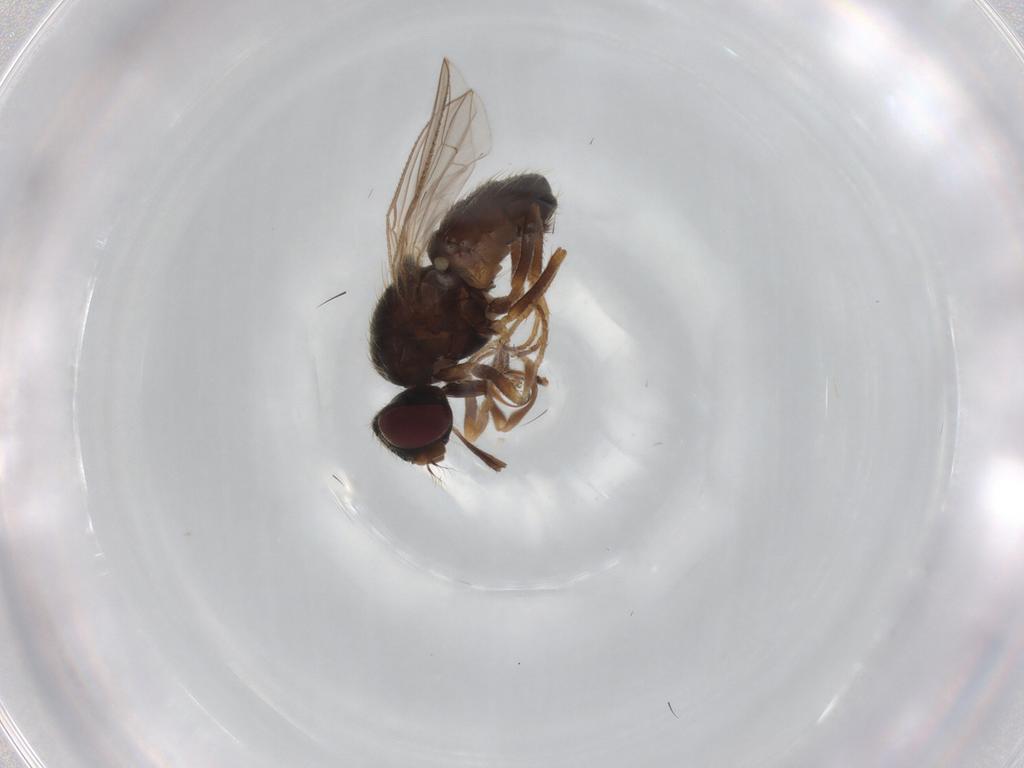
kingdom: Animalia
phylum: Arthropoda
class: Insecta
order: Diptera
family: Muscidae
